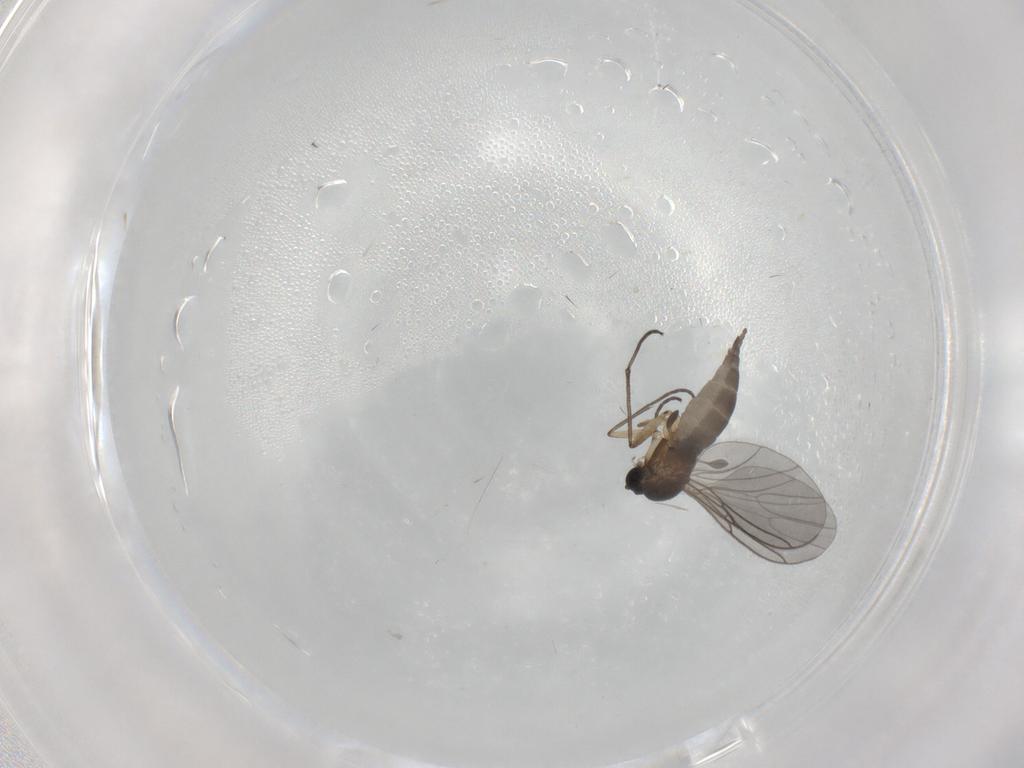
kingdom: Animalia
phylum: Arthropoda
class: Insecta
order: Diptera
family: Sciaridae
